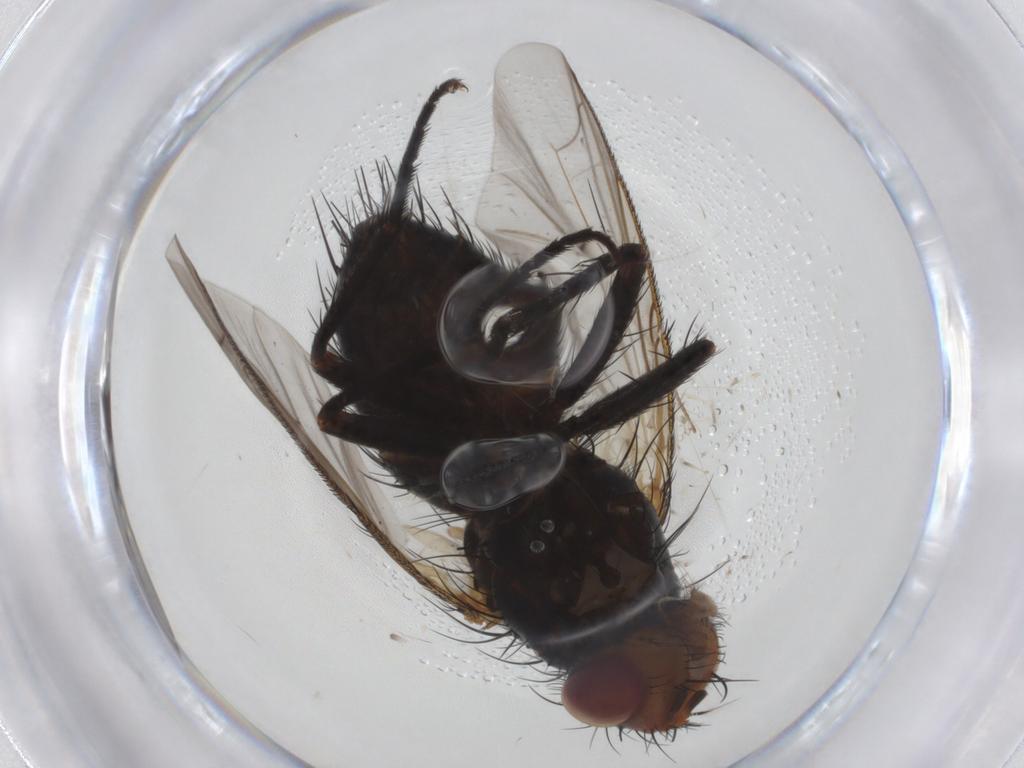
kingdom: Animalia
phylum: Arthropoda
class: Insecta
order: Diptera
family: Tachinidae
